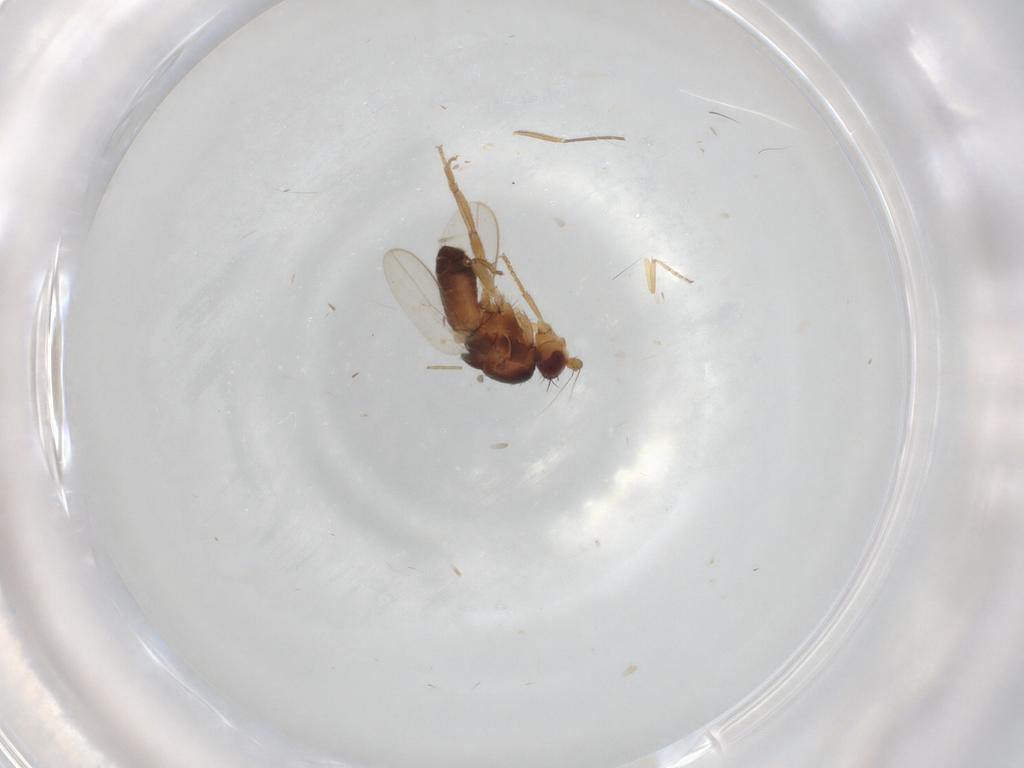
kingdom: Animalia
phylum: Arthropoda
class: Insecta
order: Diptera
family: Ceratopogonidae
